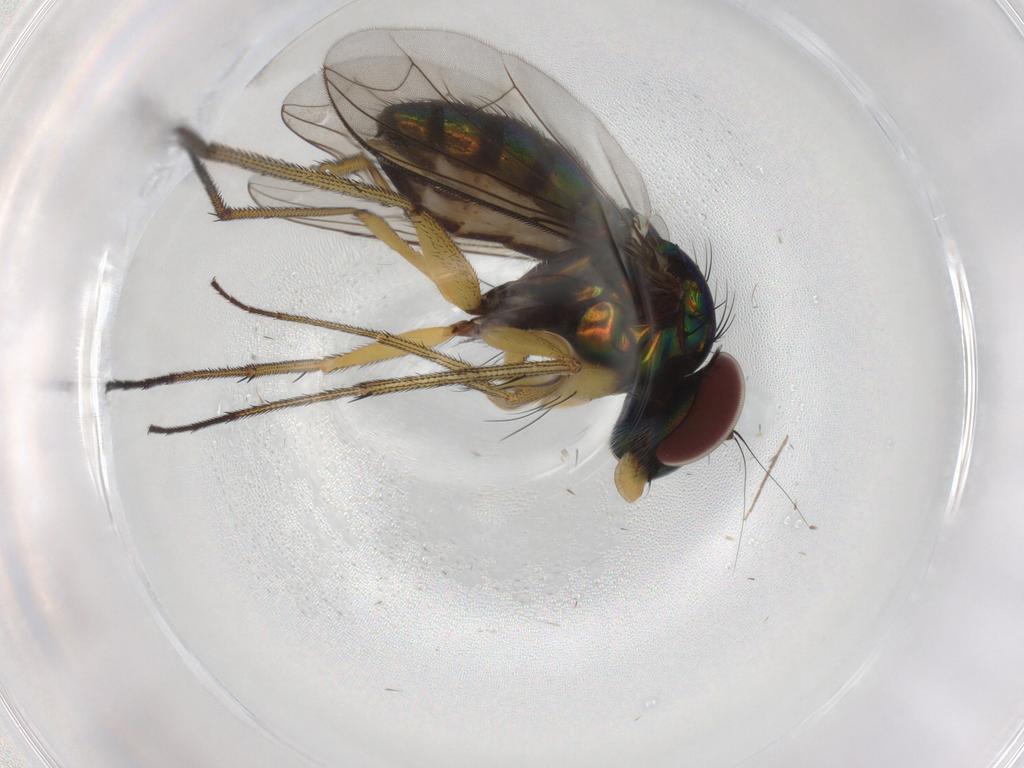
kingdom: Animalia
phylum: Arthropoda
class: Insecta
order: Diptera
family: Dolichopodidae
